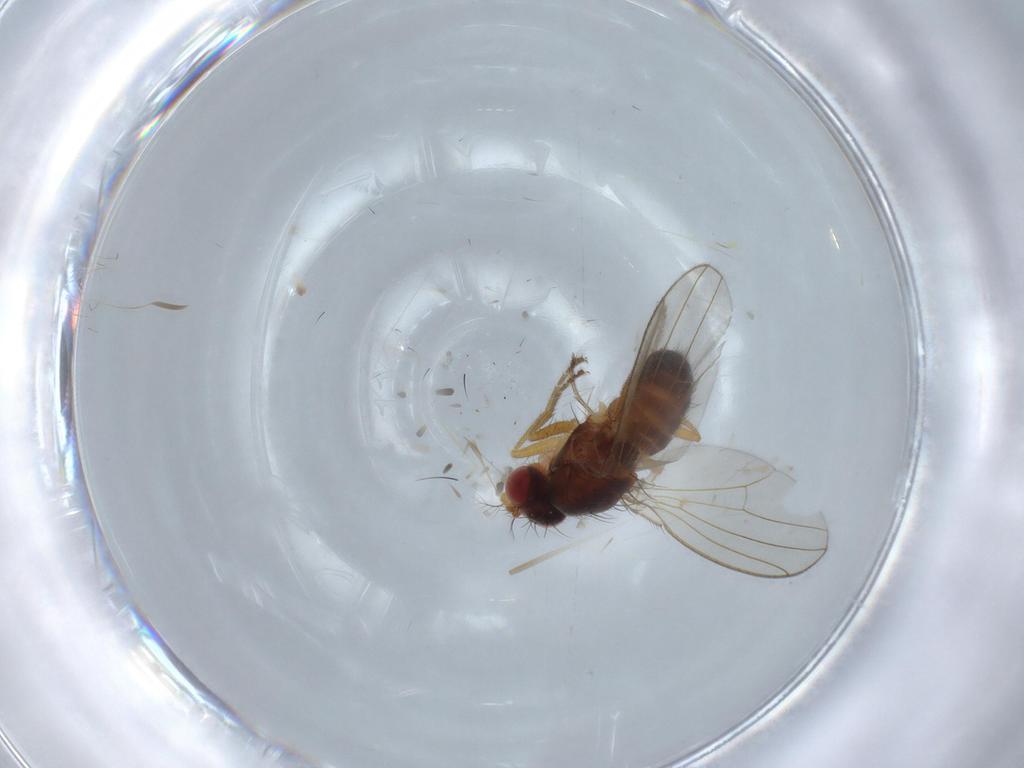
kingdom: Animalia
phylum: Arthropoda
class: Insecta
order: Diptera
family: Drosophilidae
